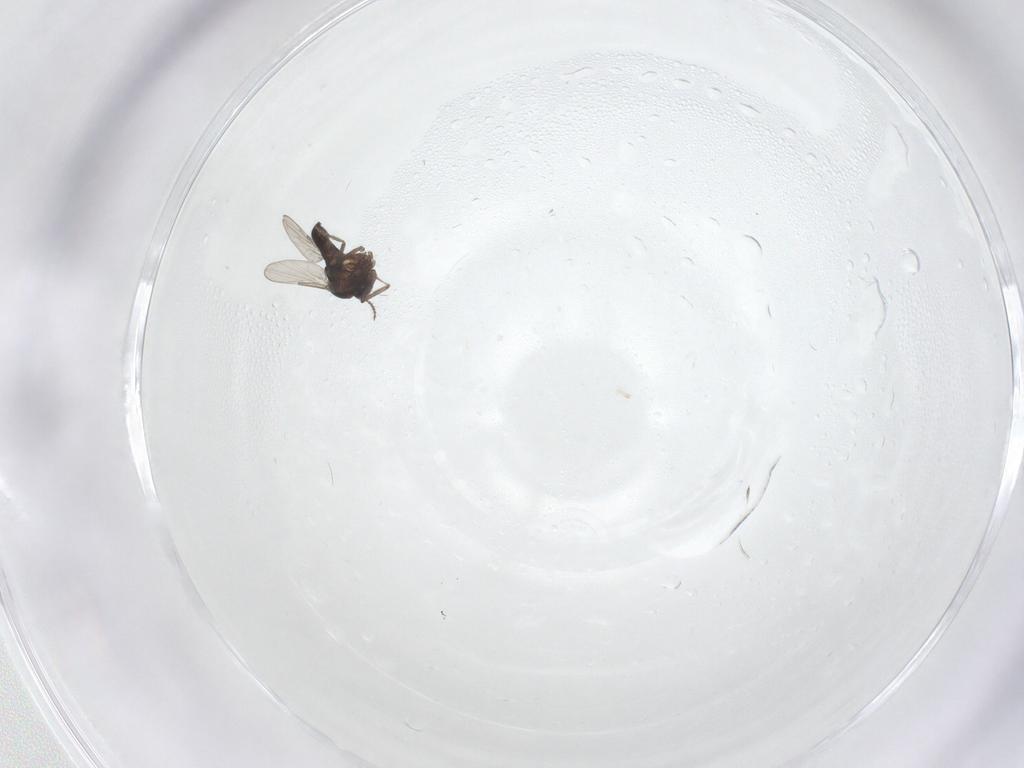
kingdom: Animalia
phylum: Arthropoda
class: Insecta
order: Diptera
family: Ceratopogonidae
